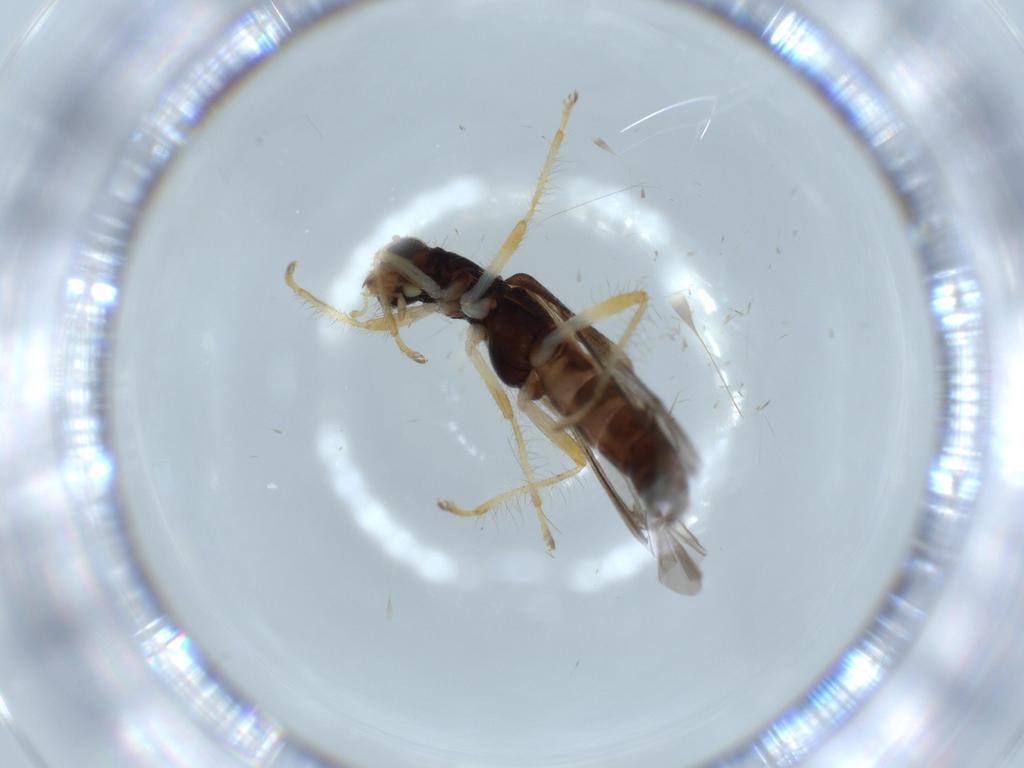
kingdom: Animalia
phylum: Arthropoda
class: Insecta
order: Coleoptera
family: Cleridae
